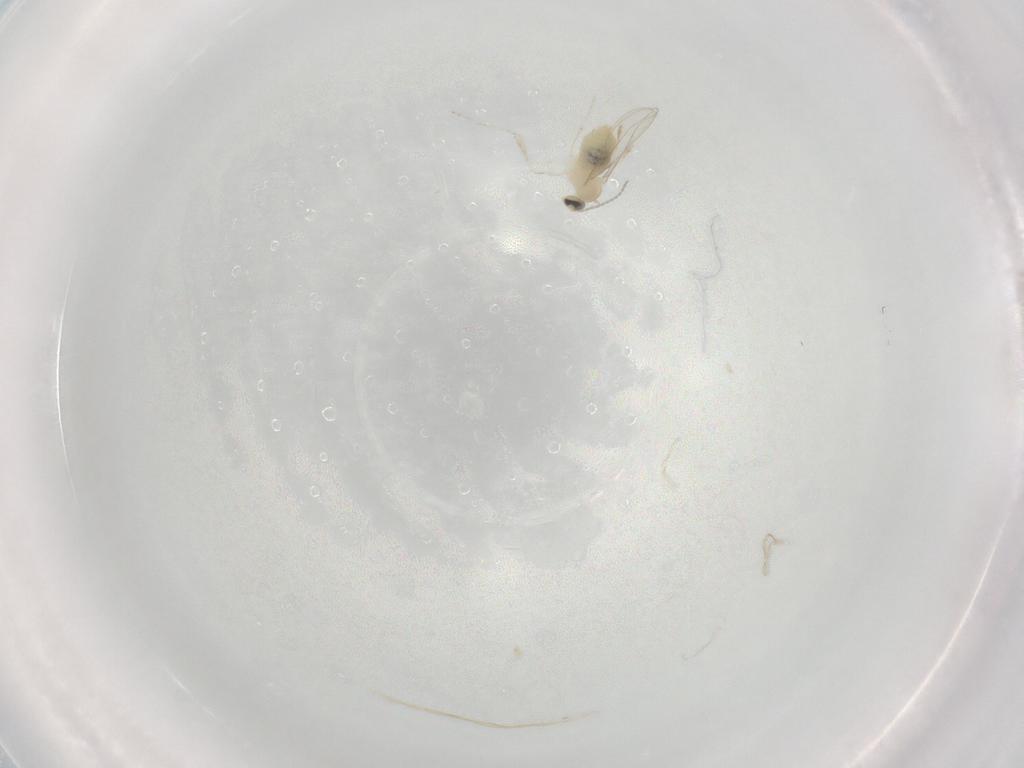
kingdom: Animalia
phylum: Arthropoda
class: Insecta
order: Diptera
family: Cecidomyiidae
